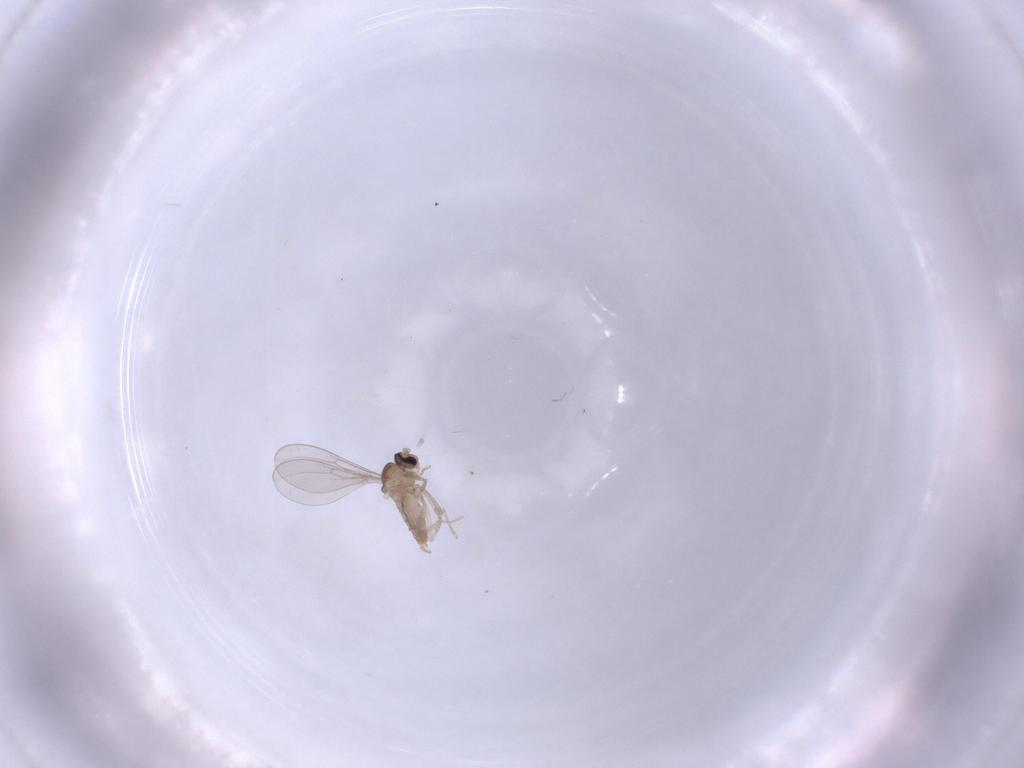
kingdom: Animalia
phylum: Arthropoda
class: Insecta
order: Diptera
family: Cecidomyiidae
